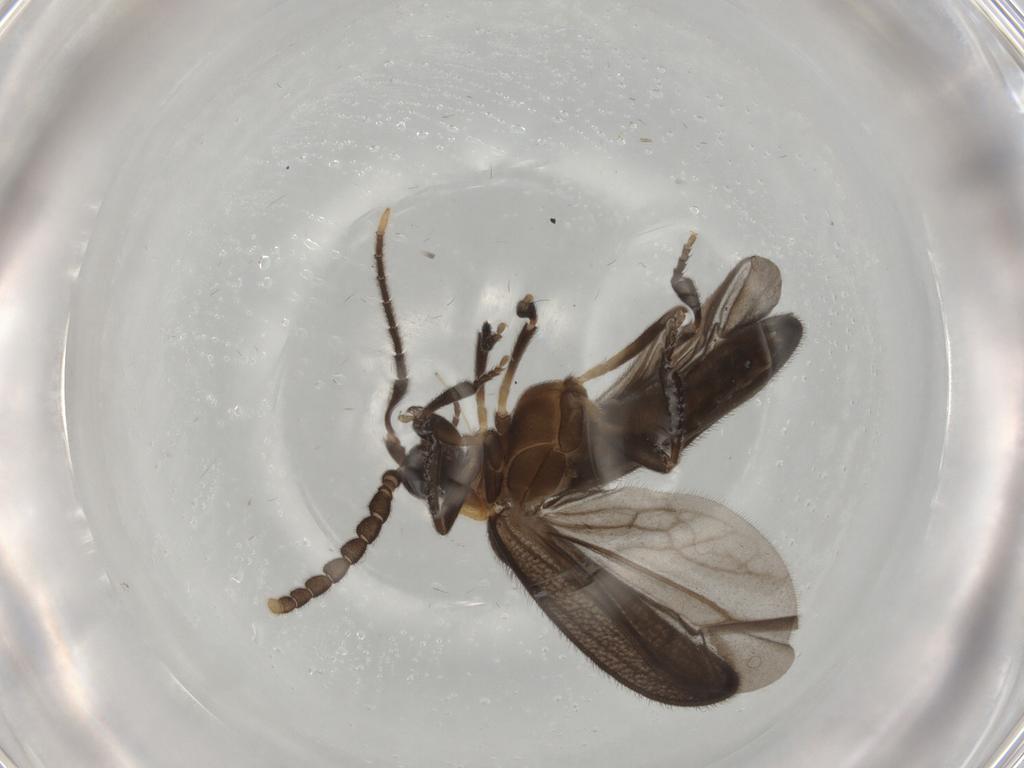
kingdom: Animalia
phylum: Arthropoda
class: Insecta
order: Coleoptera
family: Lycidae
